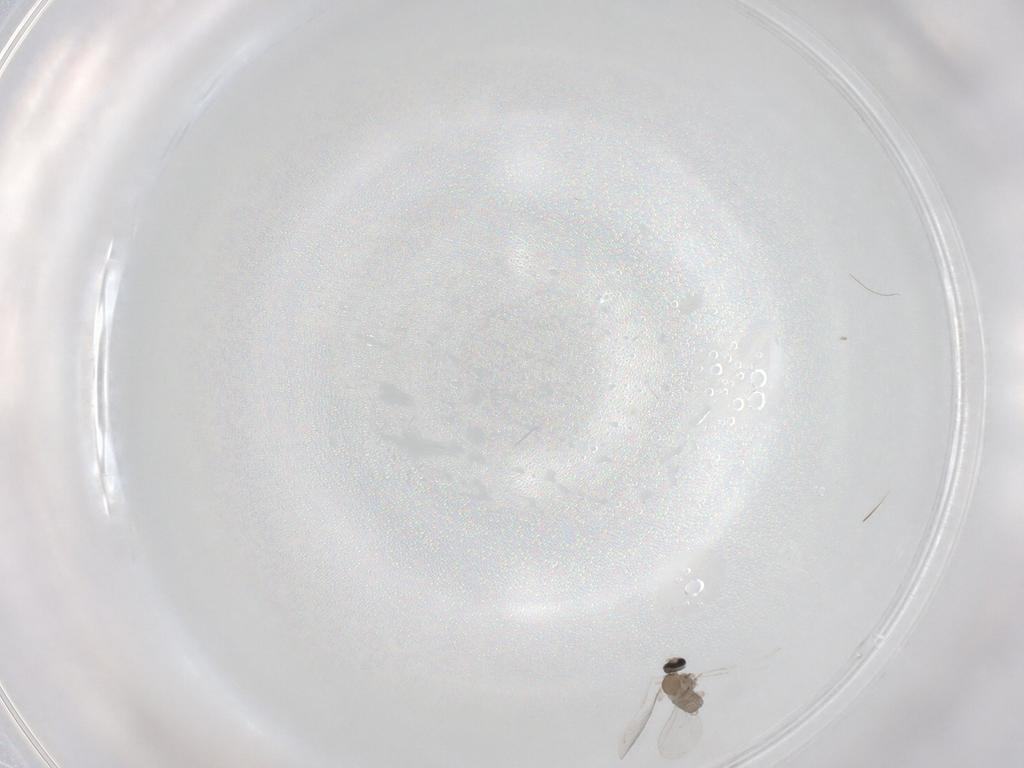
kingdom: Animalia
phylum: Arthropoda
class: Insecta
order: Diptera
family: Cecidomyiidae
